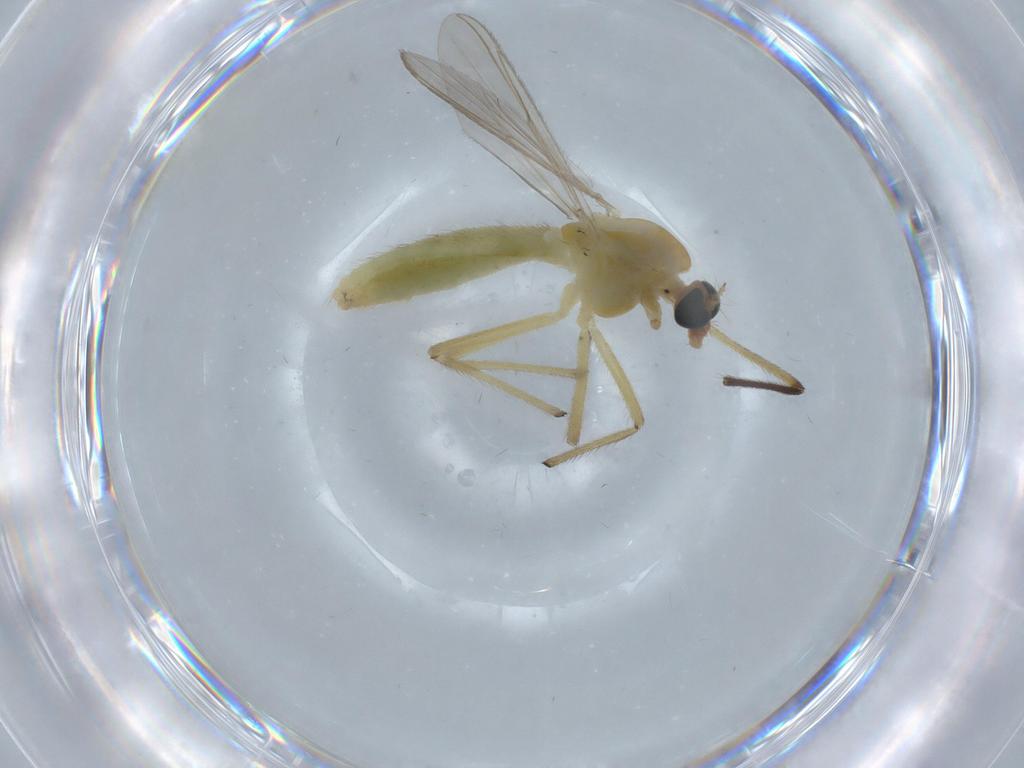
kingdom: Animalia
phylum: Arthropoda
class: Insecta
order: Diptera
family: Chironomidae
